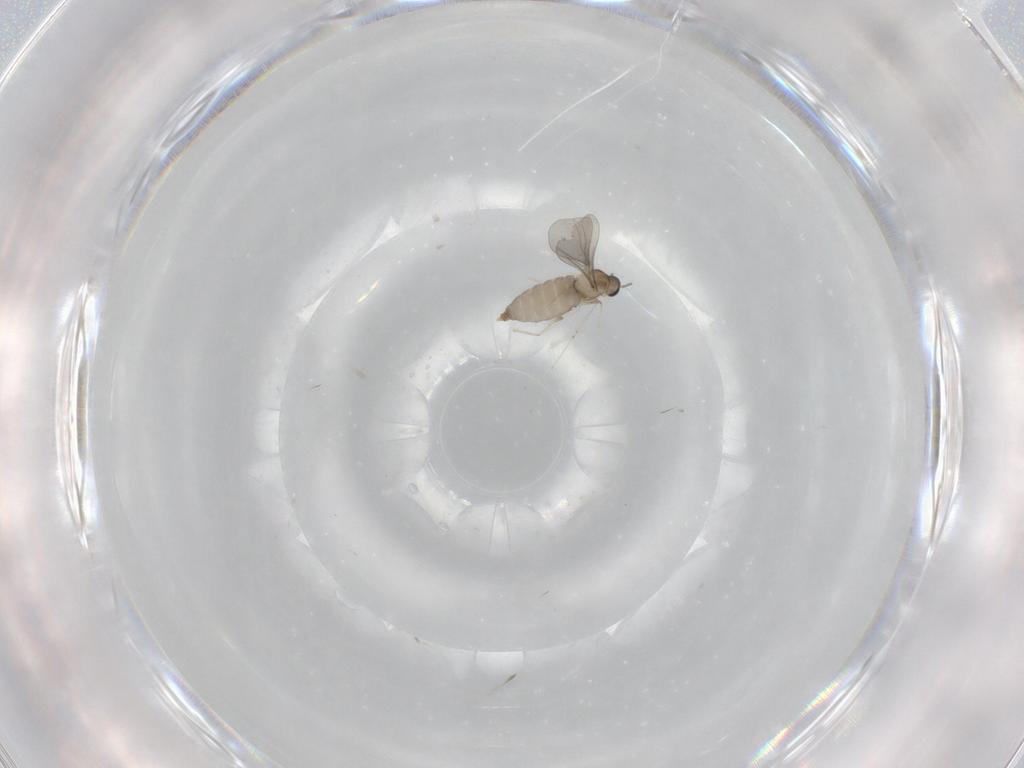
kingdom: Animalia
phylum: Arthropoda
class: Insecta
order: Diptera
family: Cecidomyiidae
